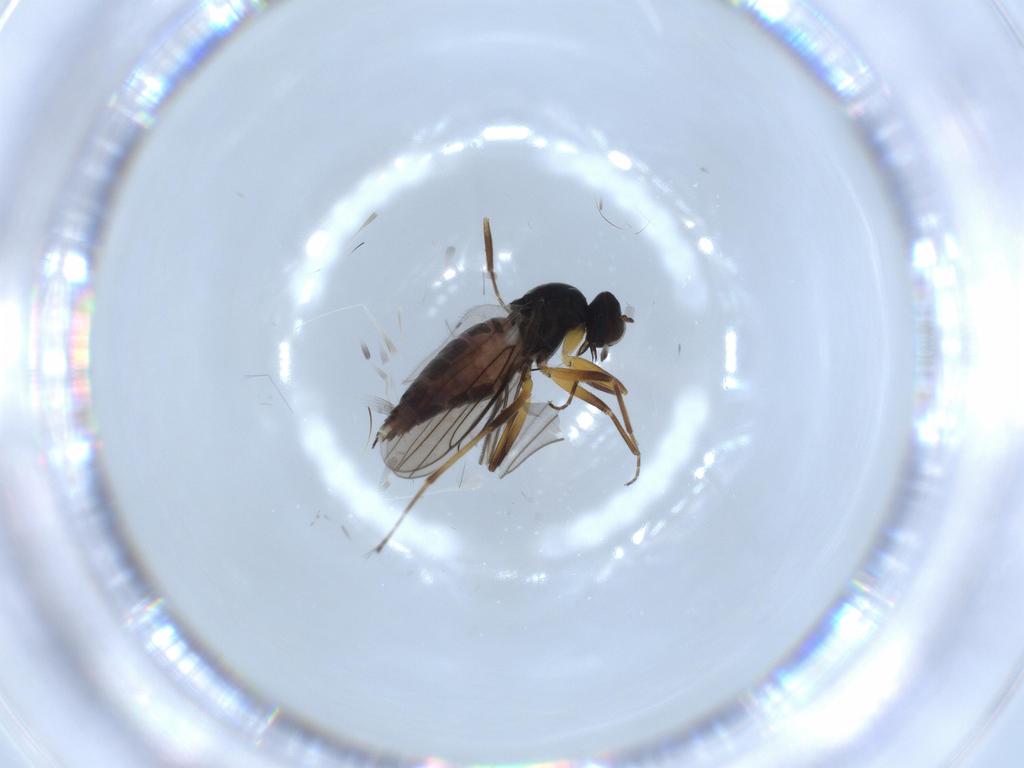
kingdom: Animalia
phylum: Arthropoda
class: Insecta
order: Diptera
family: Hybotidae
